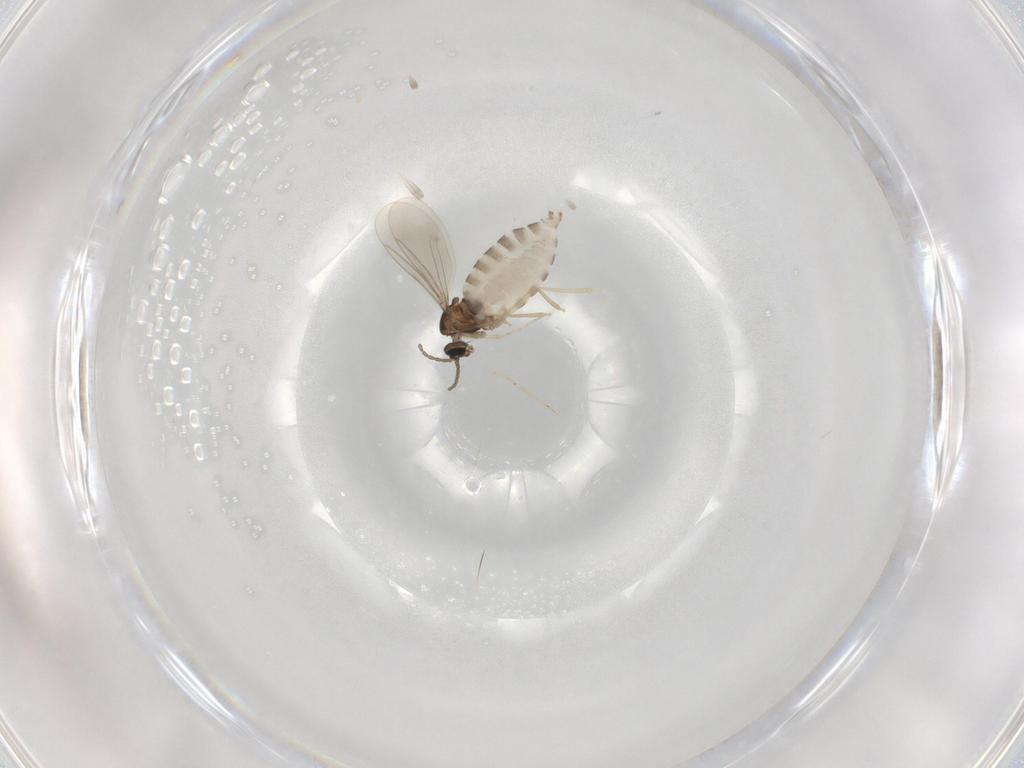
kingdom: Animalia
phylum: Arthropoda
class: Insecta
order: Diptera
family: Cecidomyiidae
